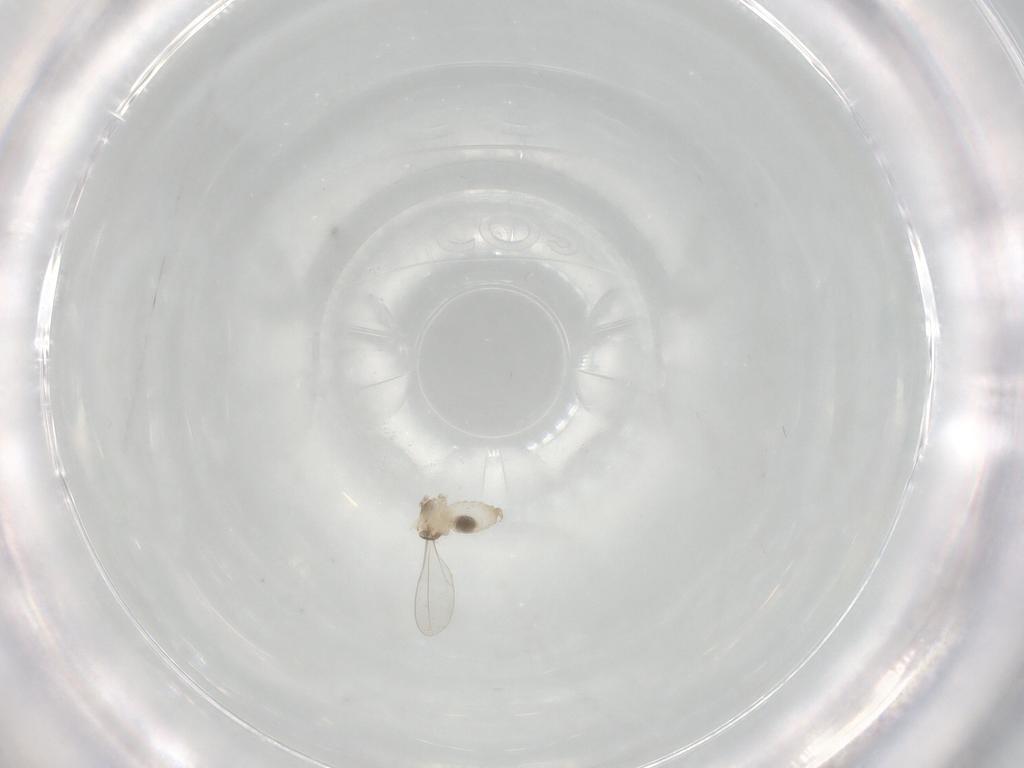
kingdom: Animalia
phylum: Arthropoda
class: Insecta
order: Diptera
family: Cecidomyiidae
